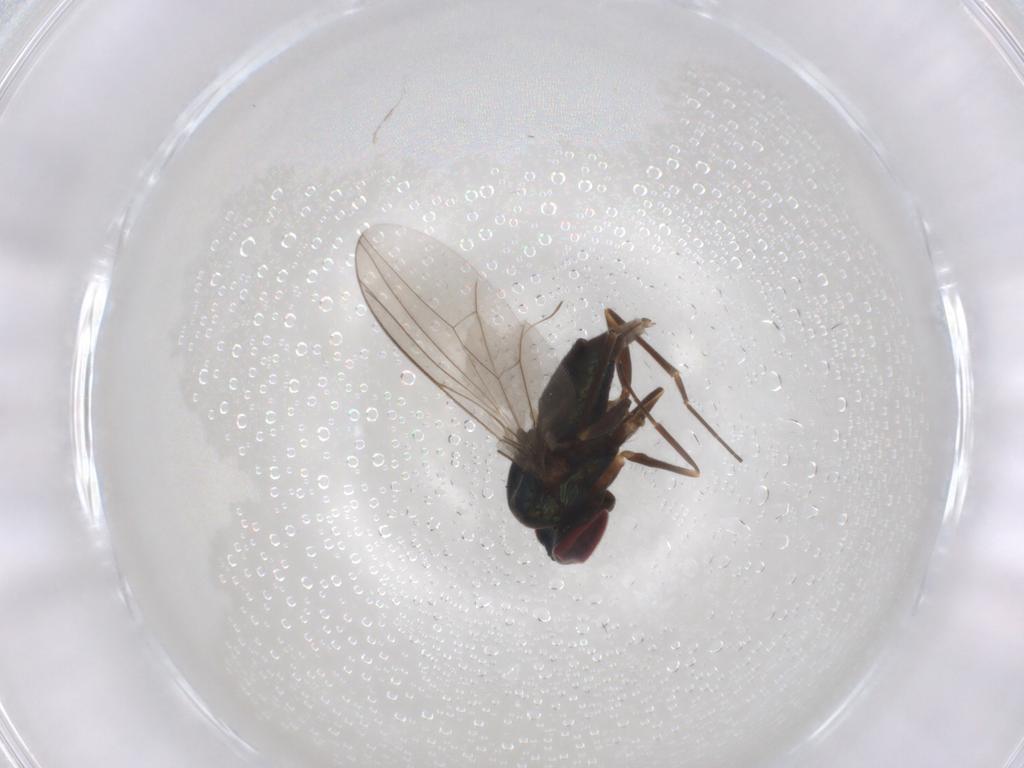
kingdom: Animalia
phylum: Arthropoda
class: Insecta
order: Diptera
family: Dolichopodidae
